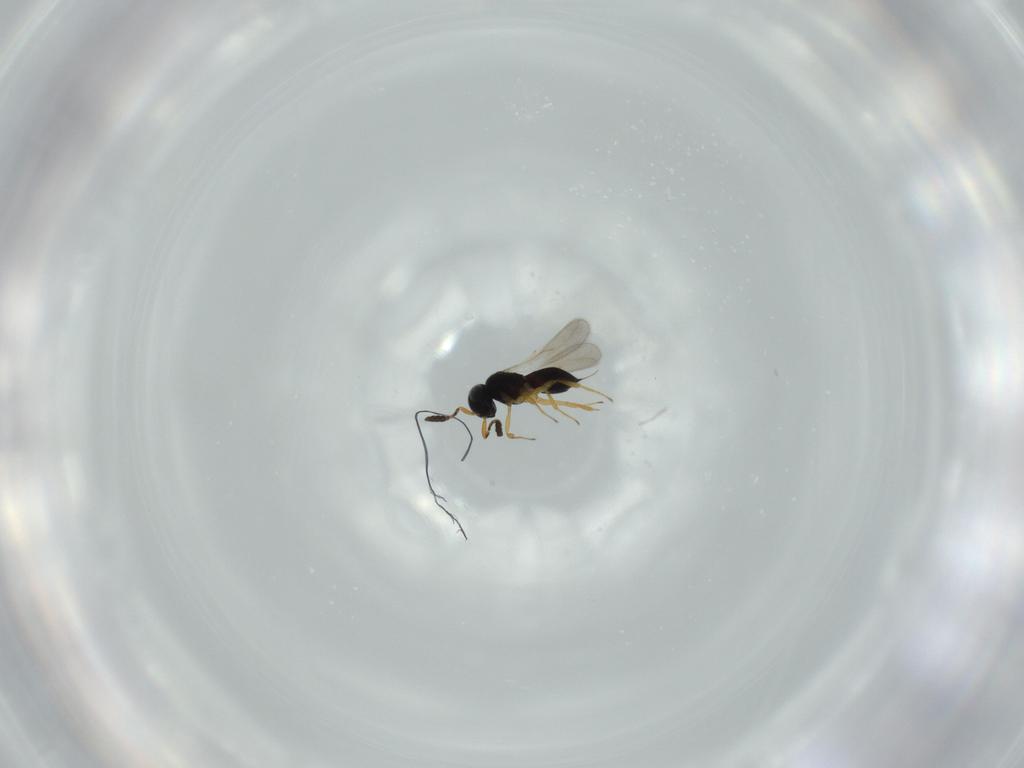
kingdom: Animalia
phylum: Arthropoda
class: Insecta
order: Hymenoptera
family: Scelionidae
